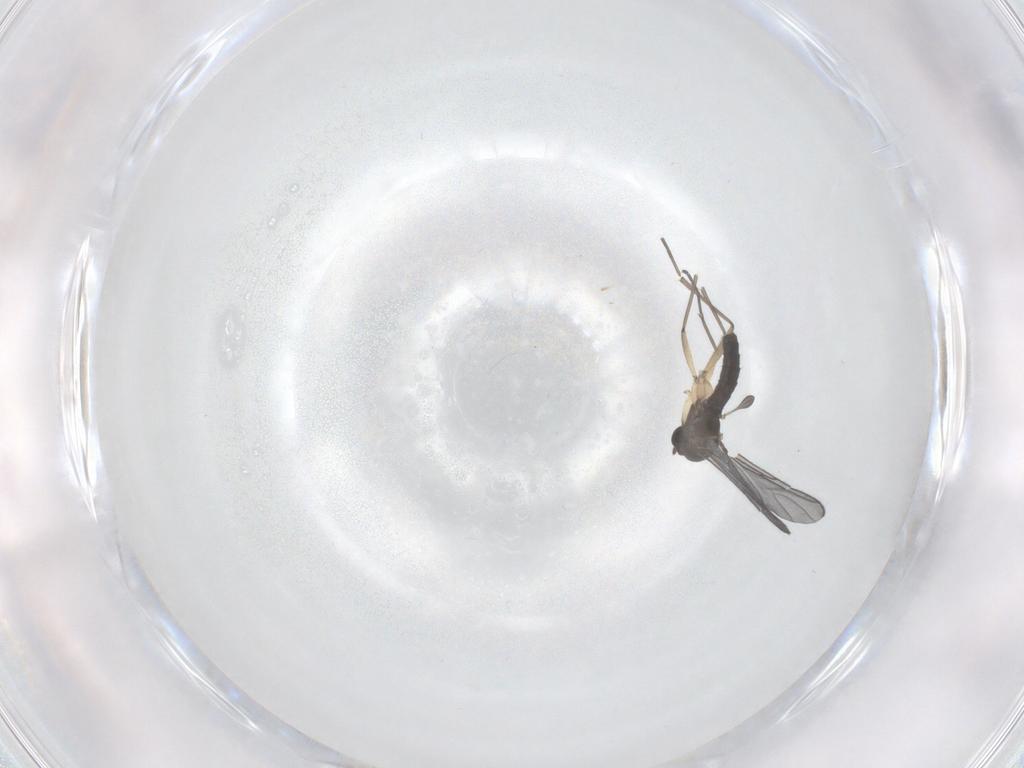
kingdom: Animalia
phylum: Arthropoda
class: Insecta
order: Diptera
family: Sciaridae
